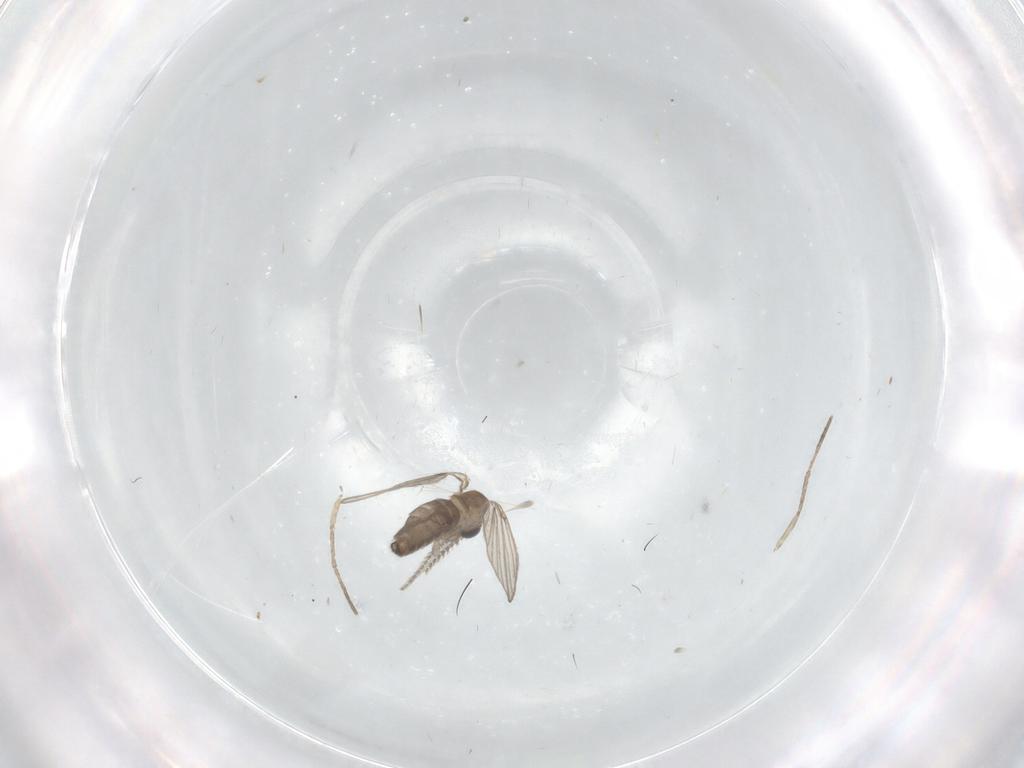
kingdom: Animalia
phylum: Arthropoda
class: Insecta
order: Diptera
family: Psychodidae
